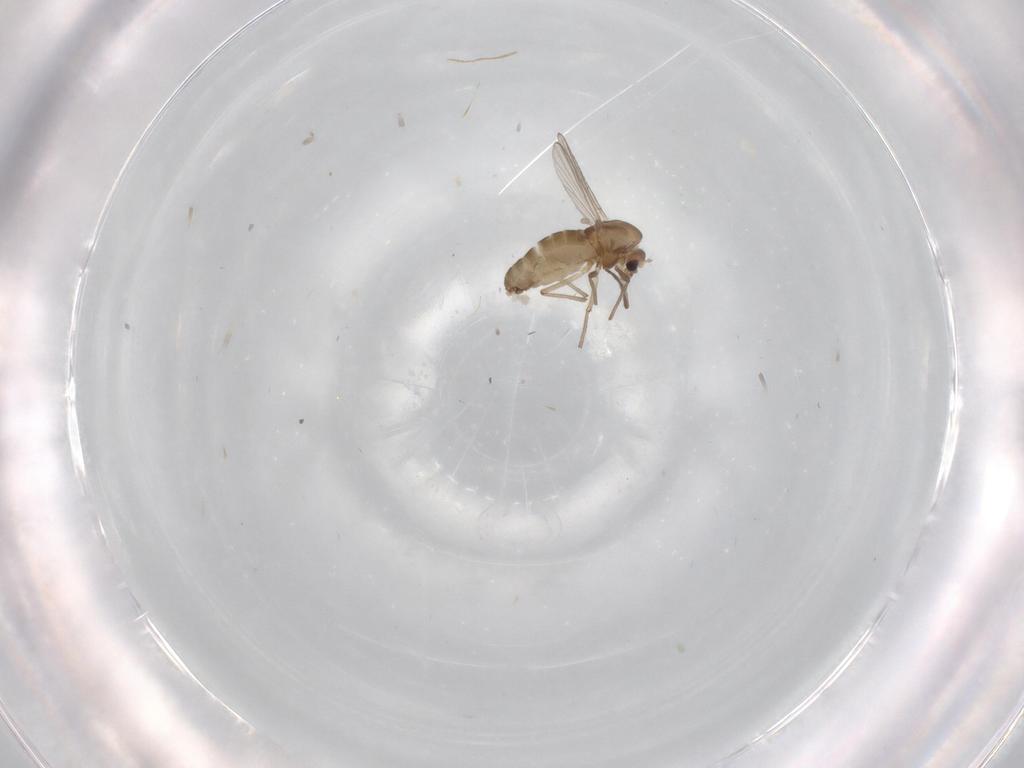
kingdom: Animalia
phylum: Arthropoda
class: Insecta
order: Diptera
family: Chironomidae
